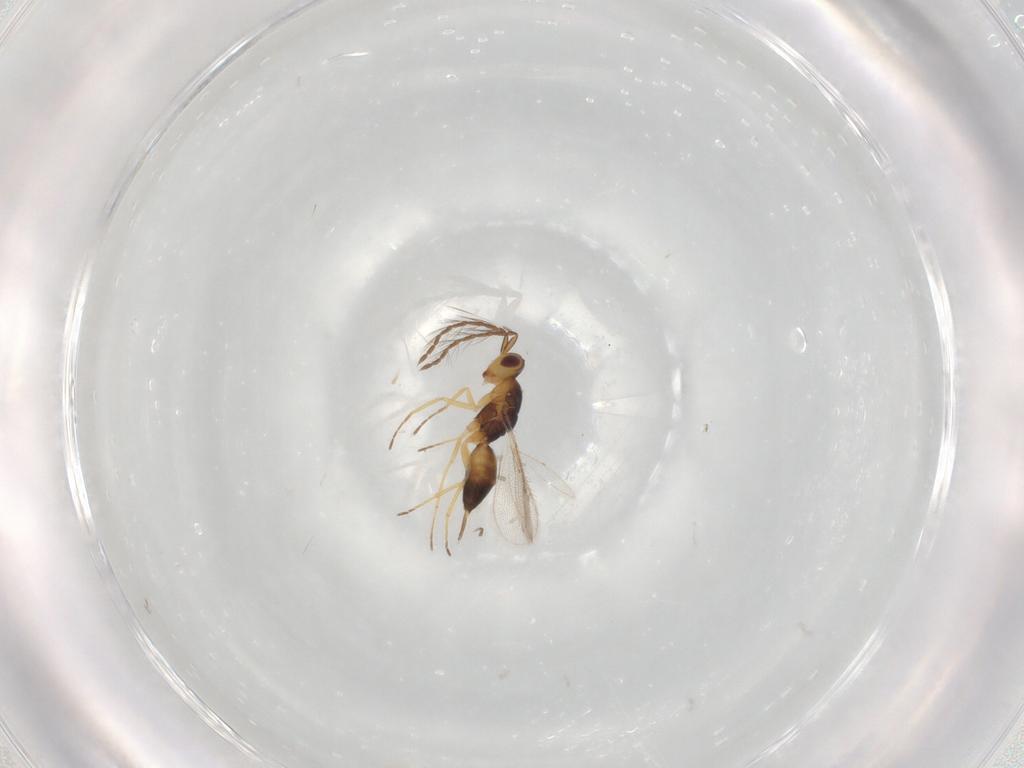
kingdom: Animalia
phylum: Arthropoda
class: Insecta
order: Hymenoptera
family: Eulophidae
